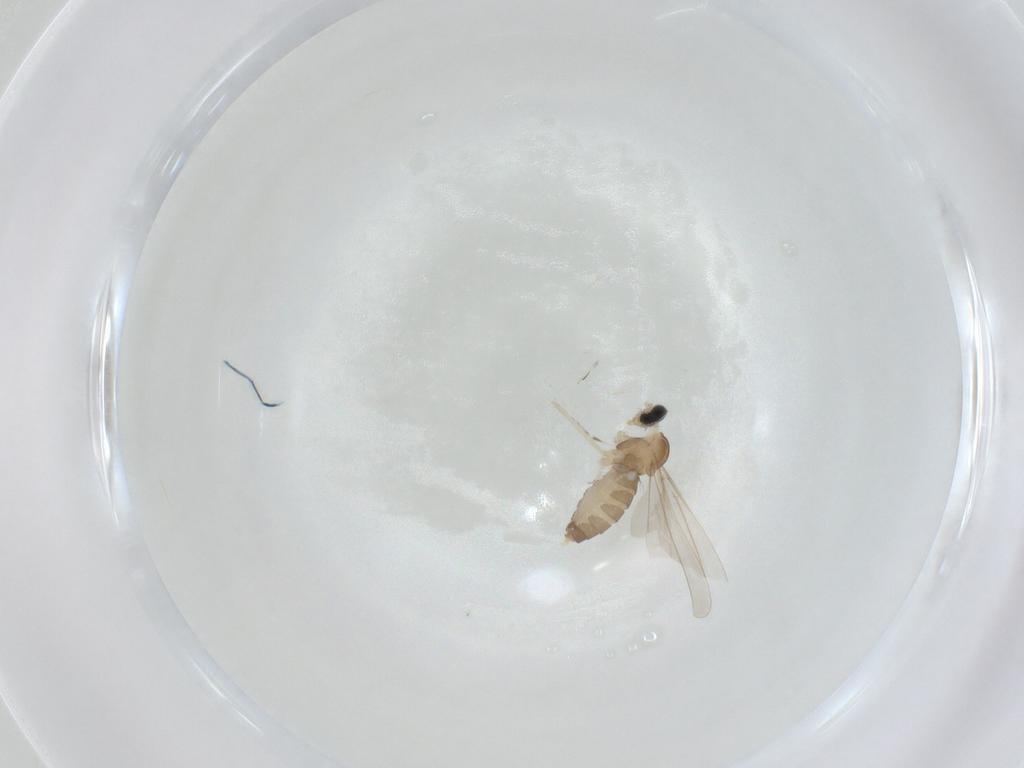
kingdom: Animalia
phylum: Arthropoda
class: Insecta
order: Diptera
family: Cecidomyiidae
